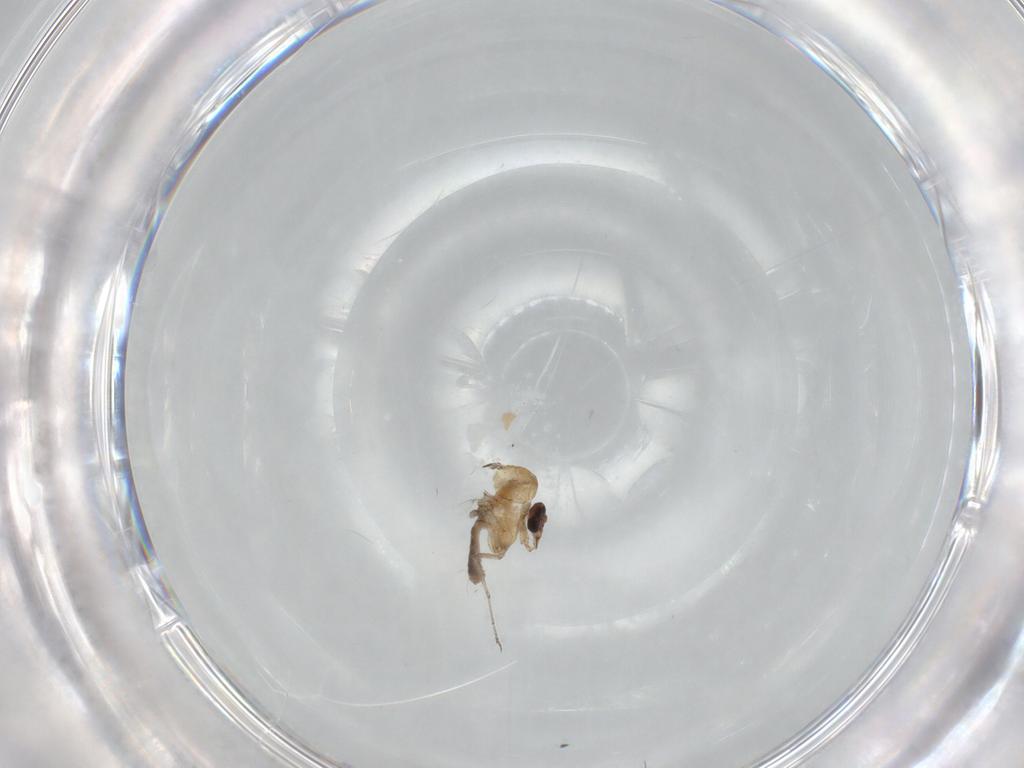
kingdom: Animalia
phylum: Arthropoda
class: Insecta
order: Diptera
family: Ceratopogonidae
